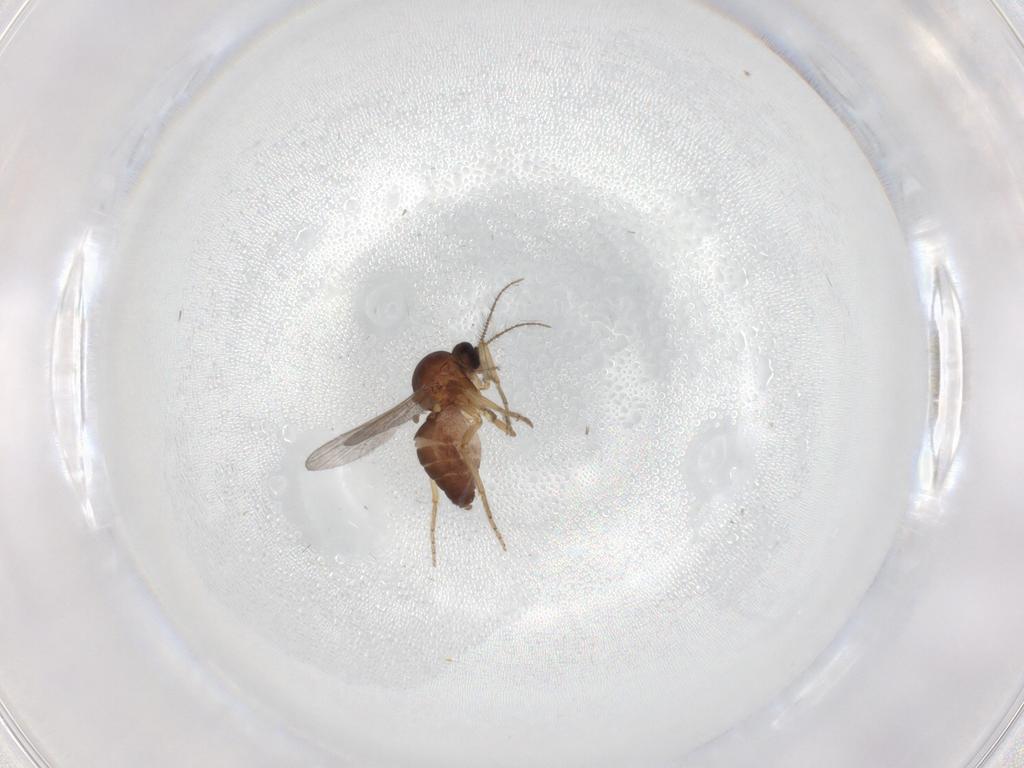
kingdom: Animalia
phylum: Arthropoda
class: Insecta
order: Diptera
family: Ceratopogonidae
